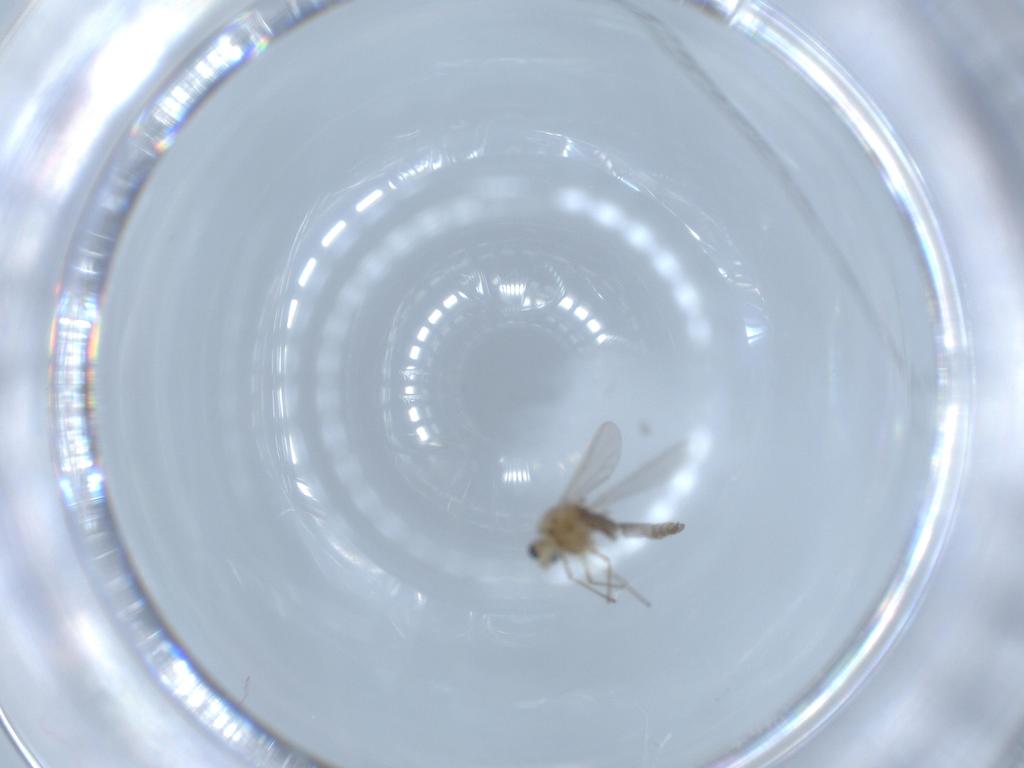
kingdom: Animalia
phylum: Arthropoda
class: Insecta
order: Diptera
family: Chironomidae
